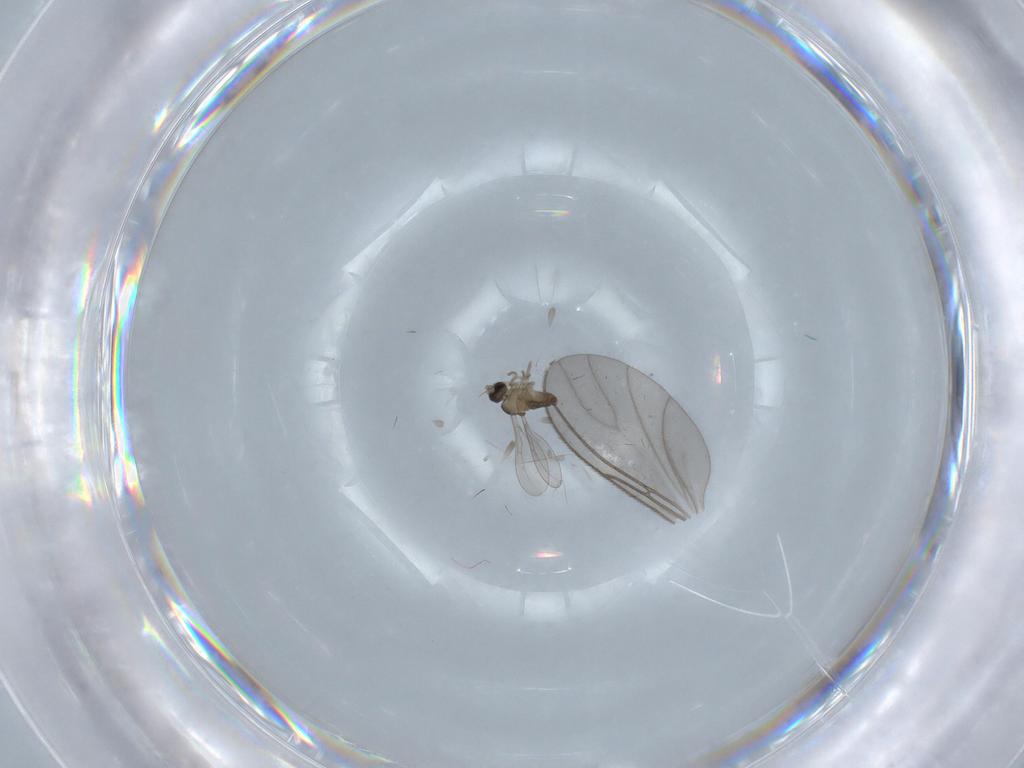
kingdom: Animalia
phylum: Arthropoda
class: Insecta
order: Diptera
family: Cecidomyiidae
